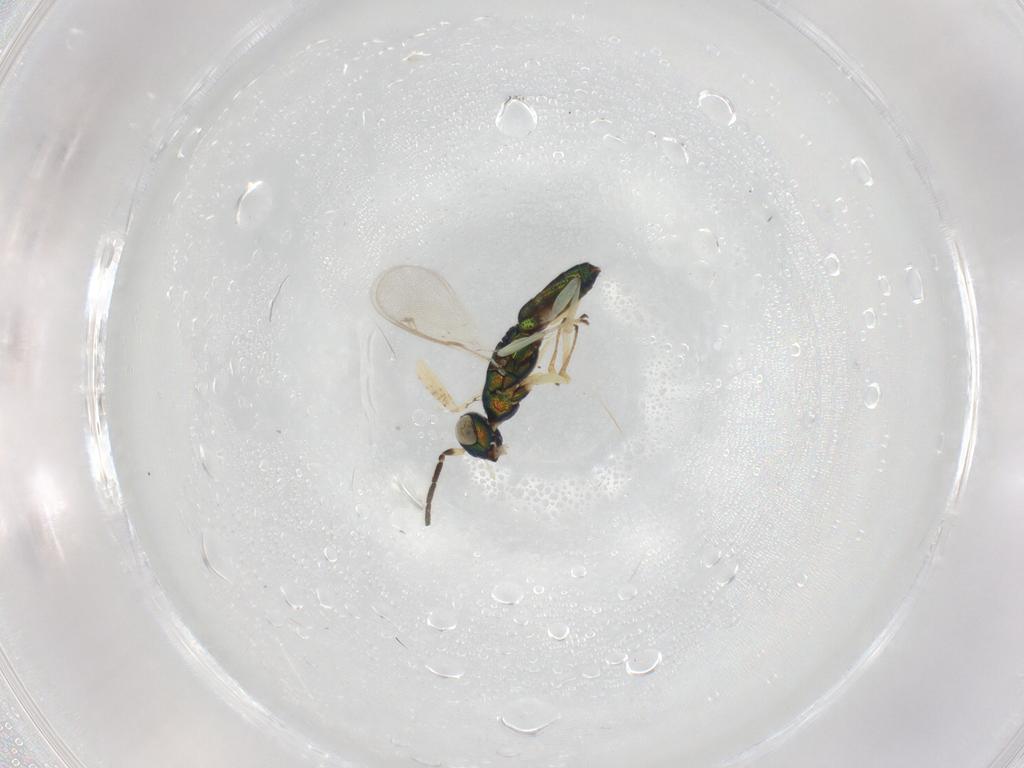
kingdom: Animalia
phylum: Arthropoda
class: Insecta
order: Hymenoptera
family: Pteromalidae
